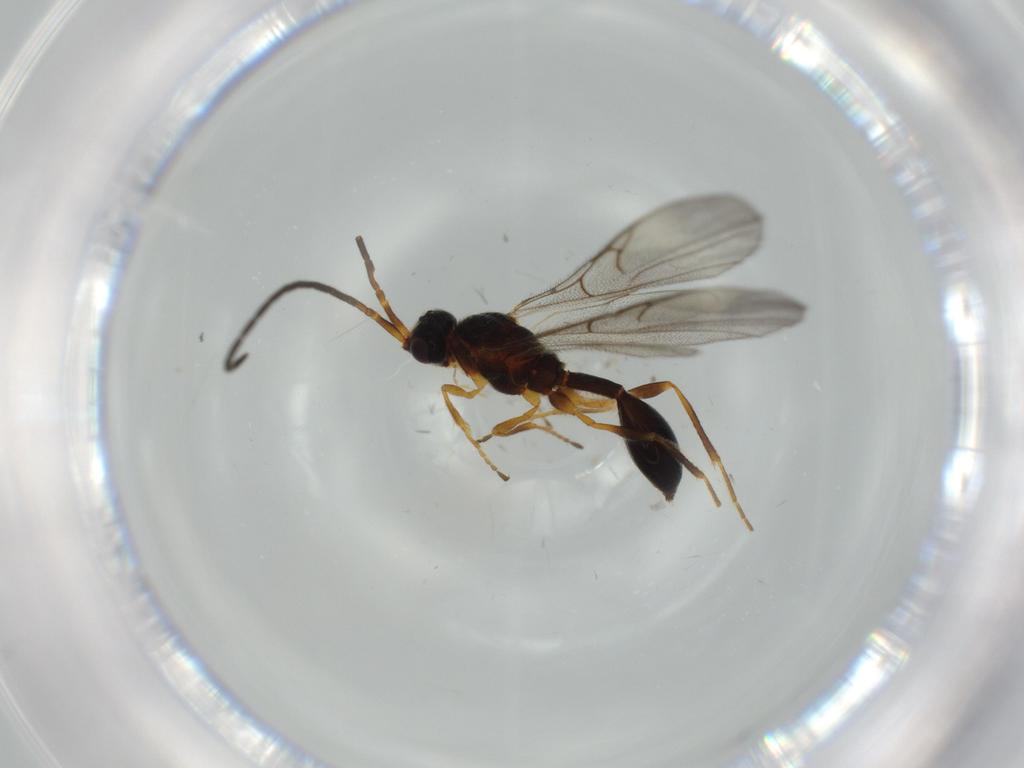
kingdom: Animalia
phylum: Arthropoda
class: Insecta
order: Hymenoptera
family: Diapriidae
